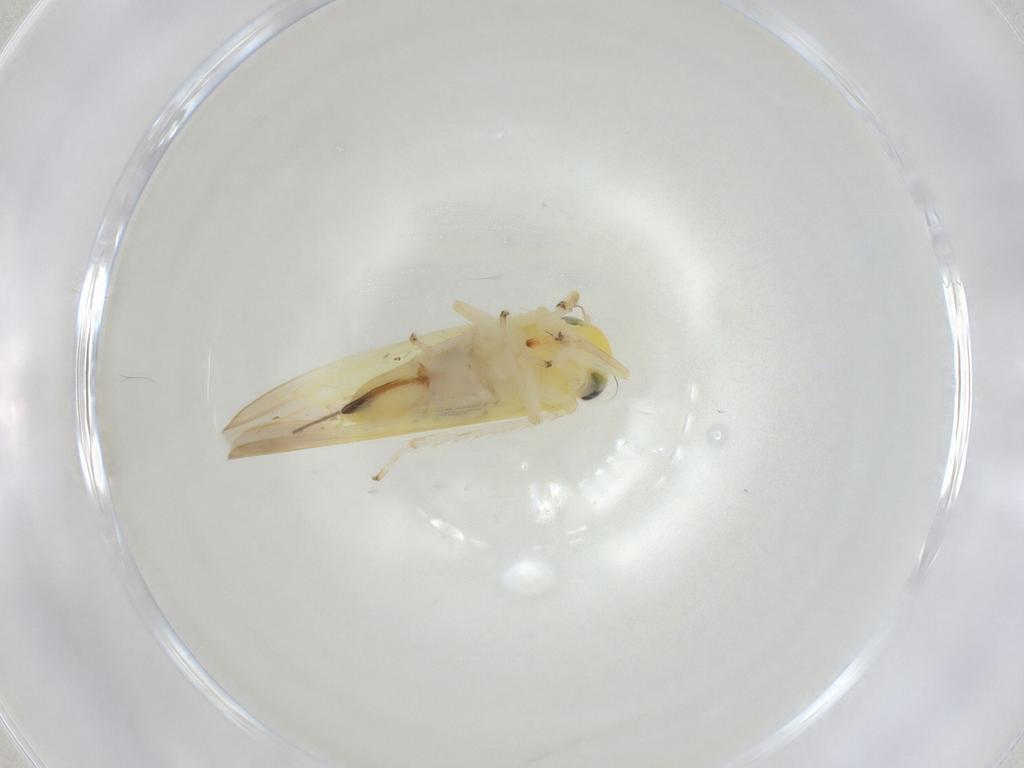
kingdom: Animalia
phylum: Arthropoda
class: Insecta
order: Hemiptera
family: Cicadellidae
